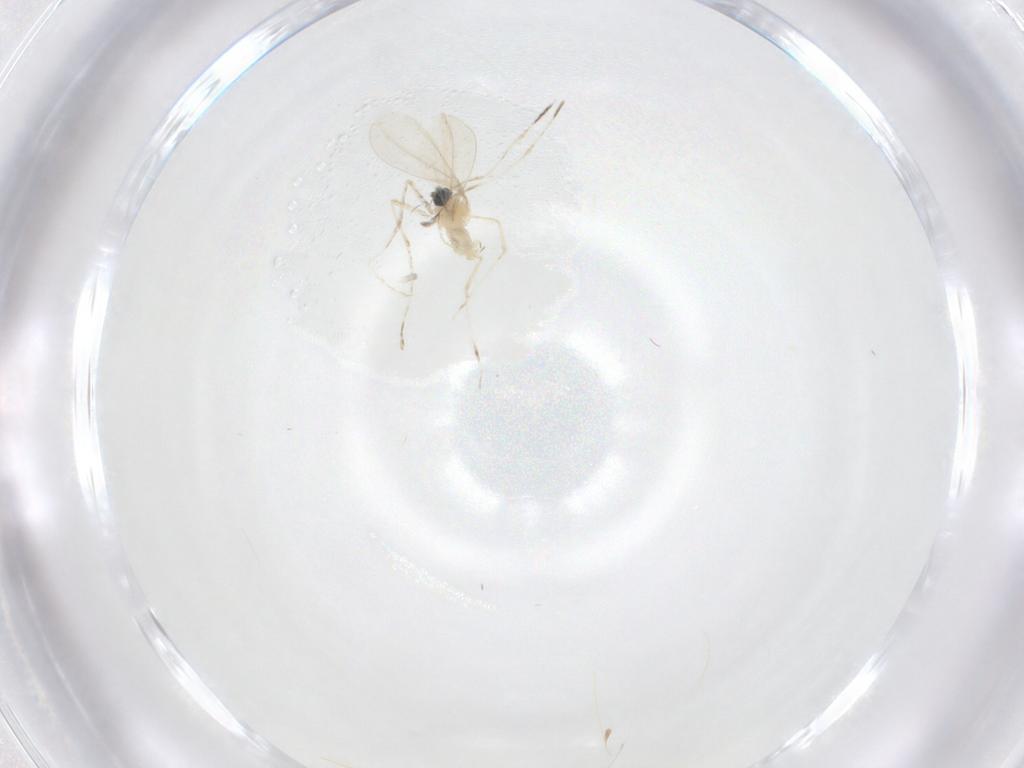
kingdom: Animalia
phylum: Arthropoda
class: Insecta
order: Diptera
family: Cecidomyiidae
